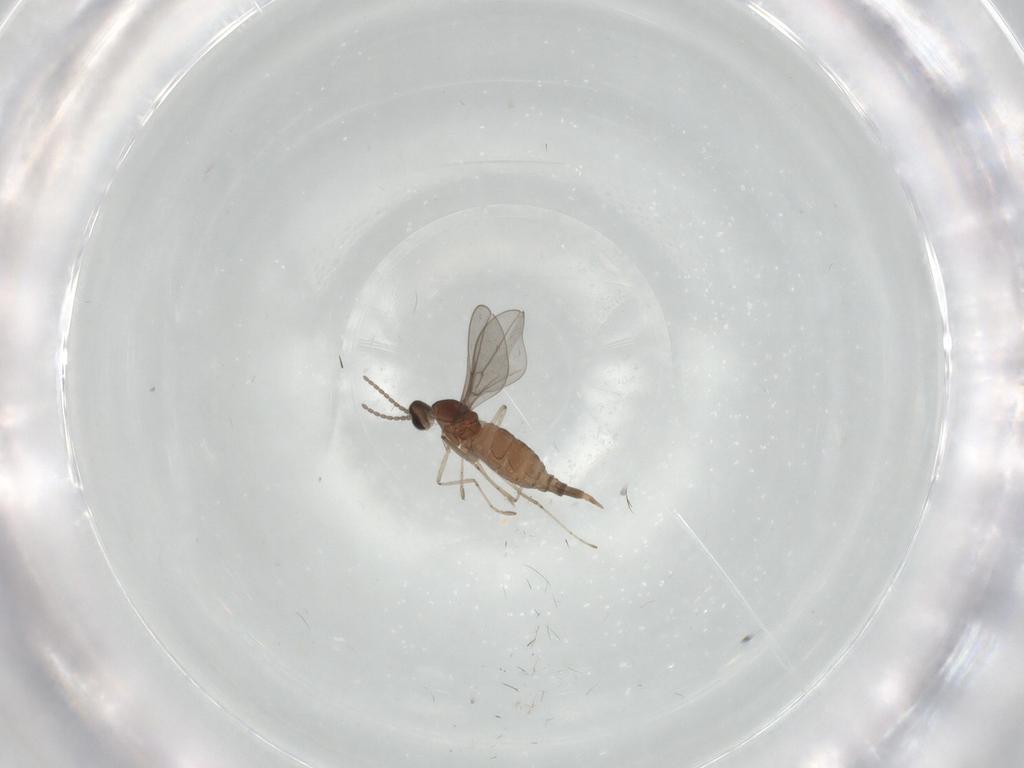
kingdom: Animalia
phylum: Arthropoda
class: Insecta
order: Diptera
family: Cecidomyiidae
